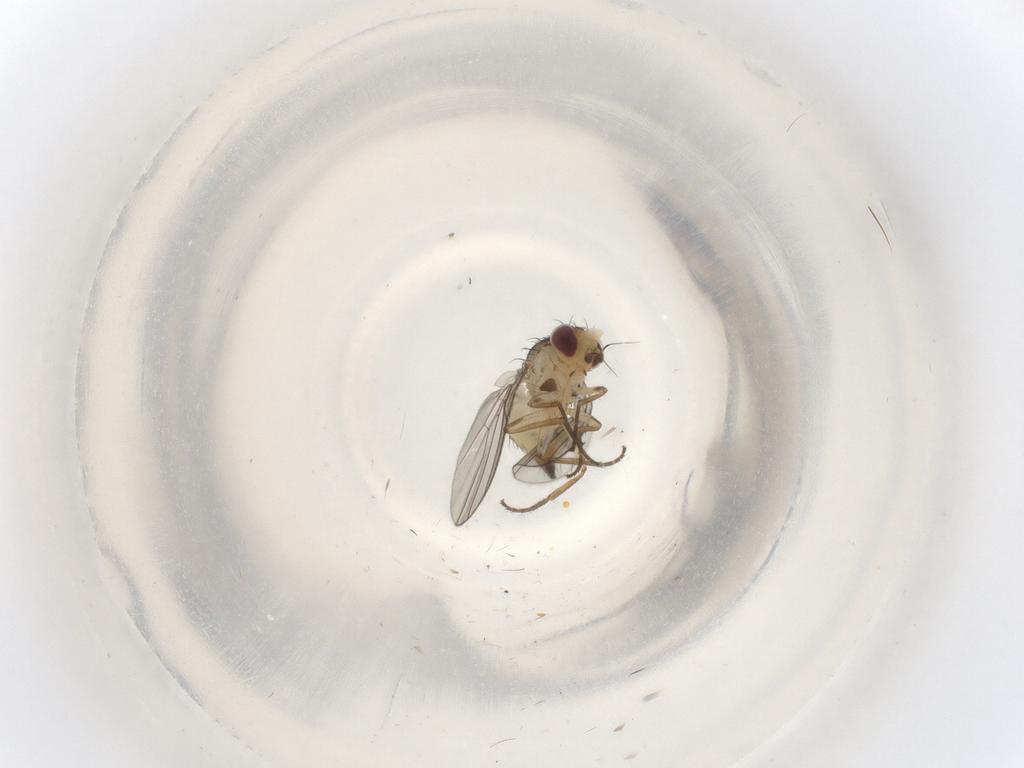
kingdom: Animalia
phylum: Arthropoda
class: Insecta
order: Diptera
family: Agromyzidae
